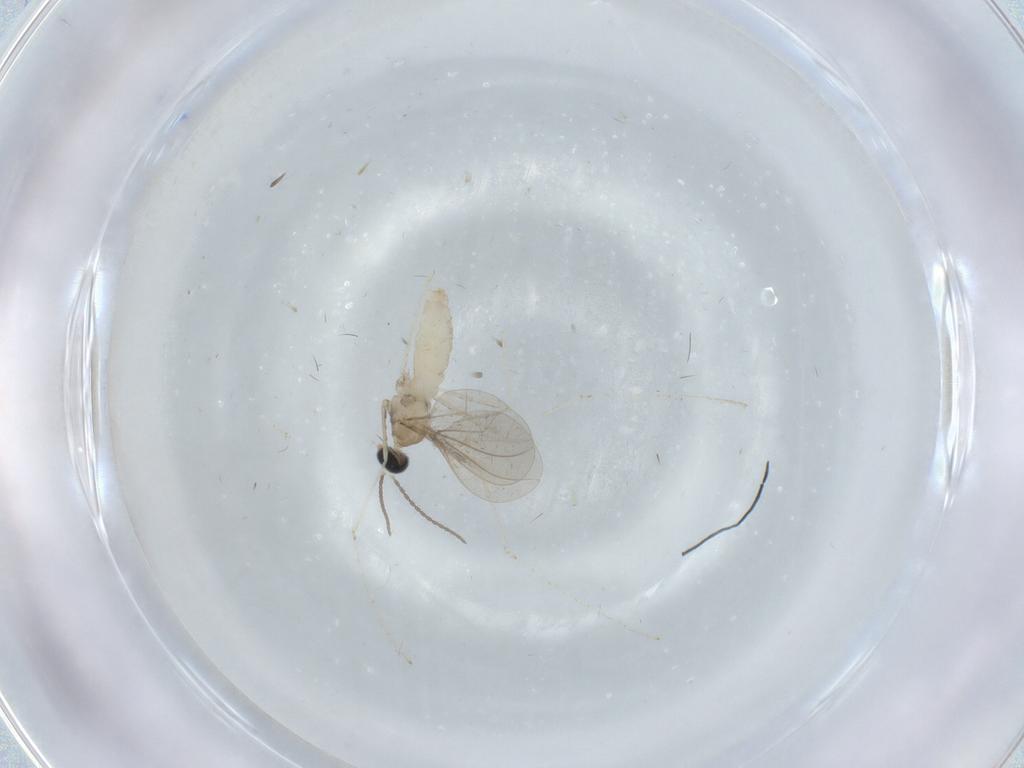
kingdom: Animalia
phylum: Arthropoda
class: Insecta
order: Diptera
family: Cecidomyiidae
